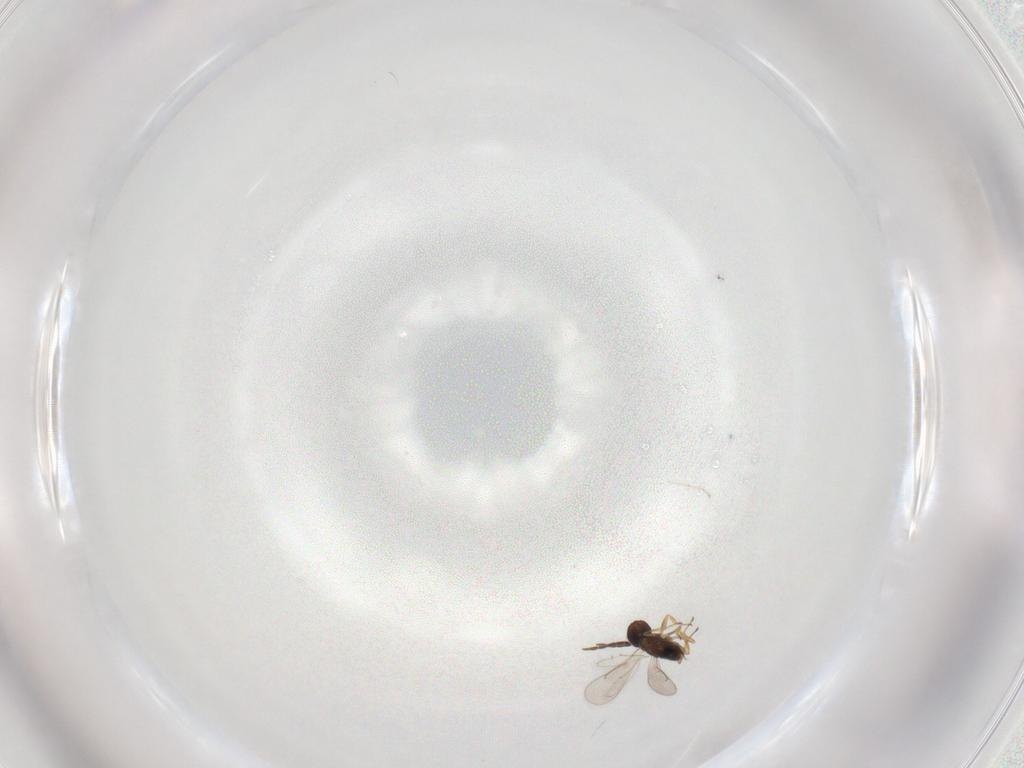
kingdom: Animalia
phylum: Arthropoda
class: Insecta
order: Hymenoptera
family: Aphelinidae
